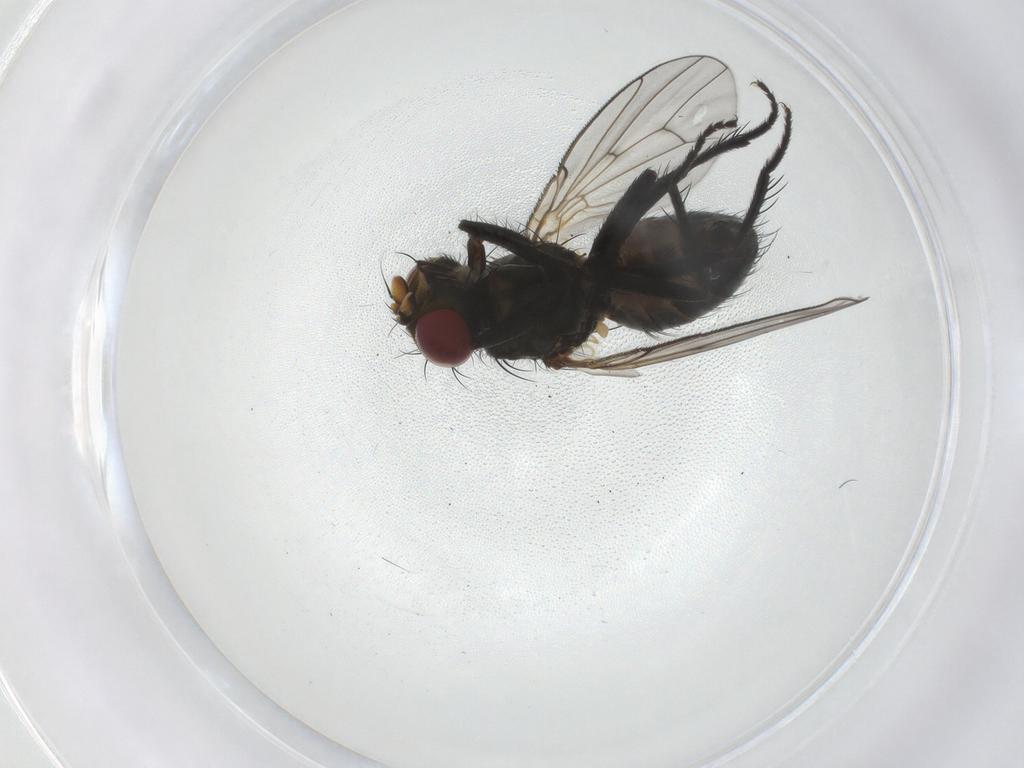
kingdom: Animalia
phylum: Arthropoda
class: Insecta
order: Diptera
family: Muscidae
